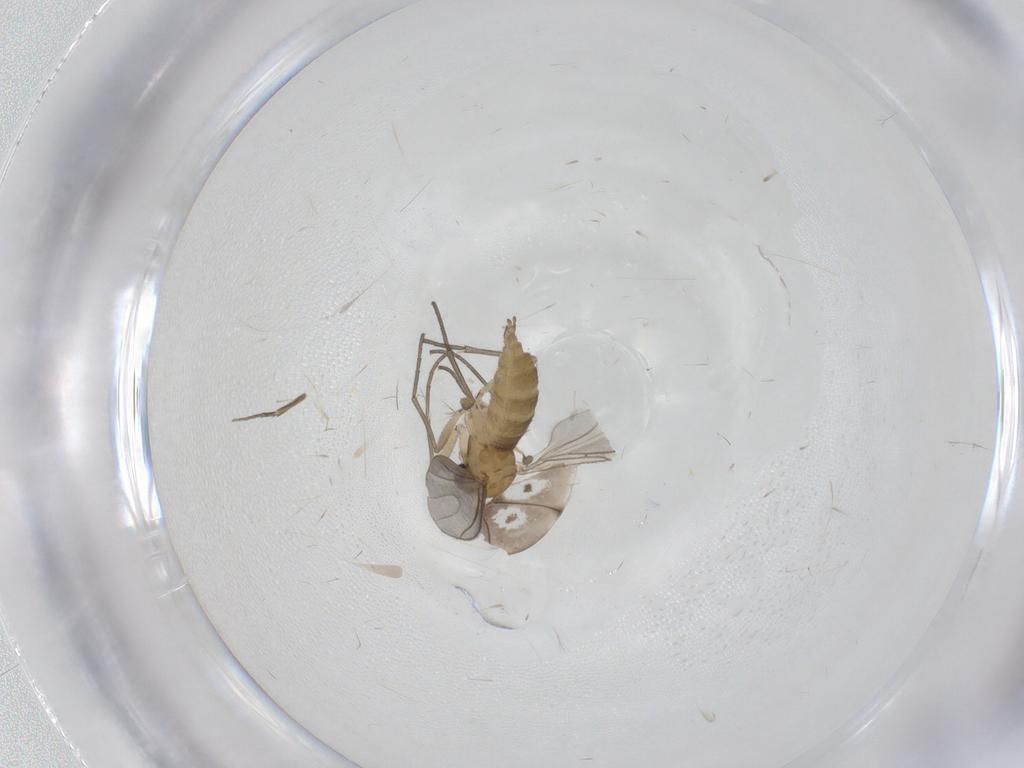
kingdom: Animalia
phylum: Arthropoda
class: Insecta
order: Diptera
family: Sciaridae
